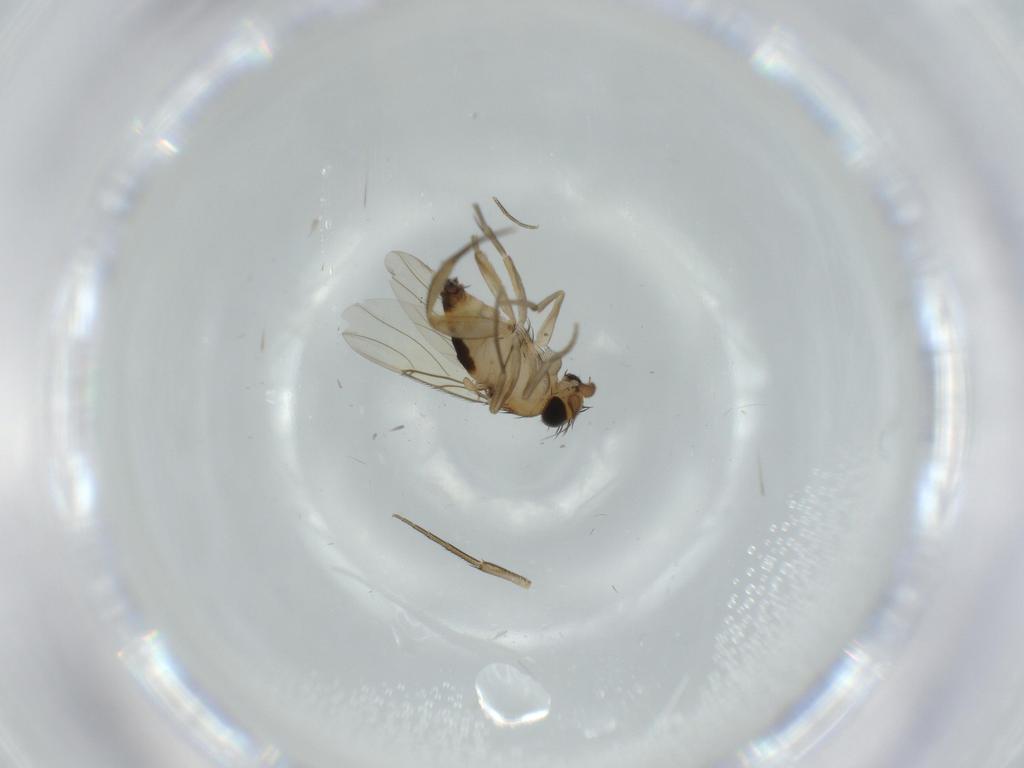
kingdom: Animalia
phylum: Arthropoda
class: Insecta
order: Diptera
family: Phoridae
